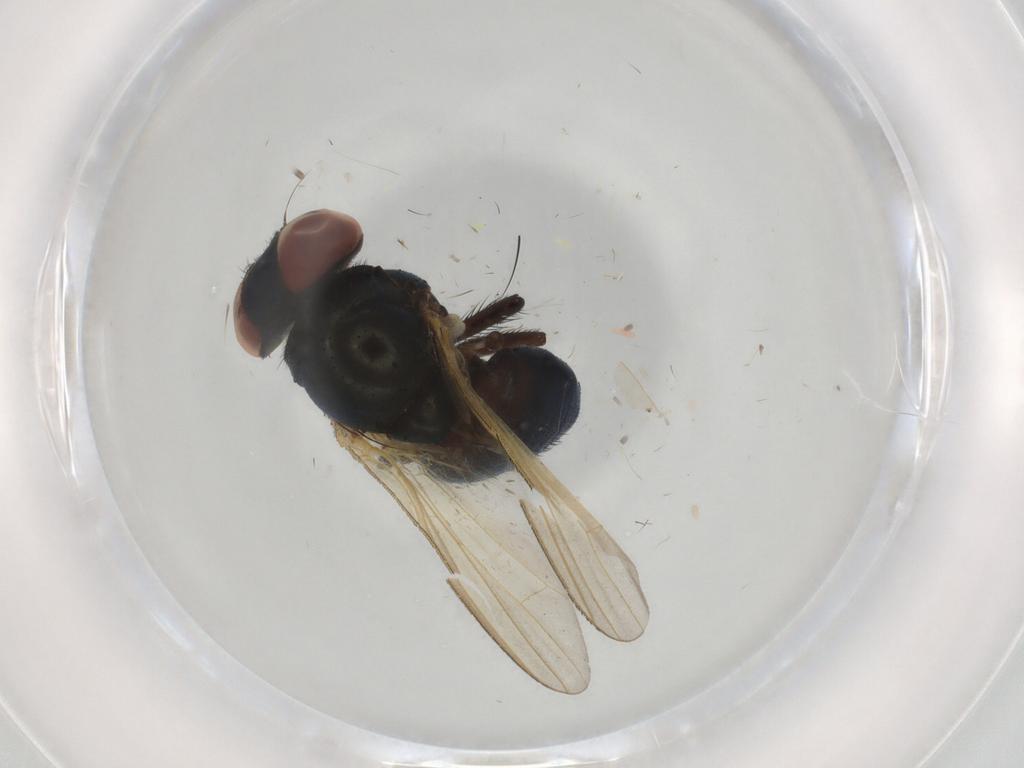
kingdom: Animalia
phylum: Arthropoda
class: Insecta
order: Diptera
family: Lonchaeidae
